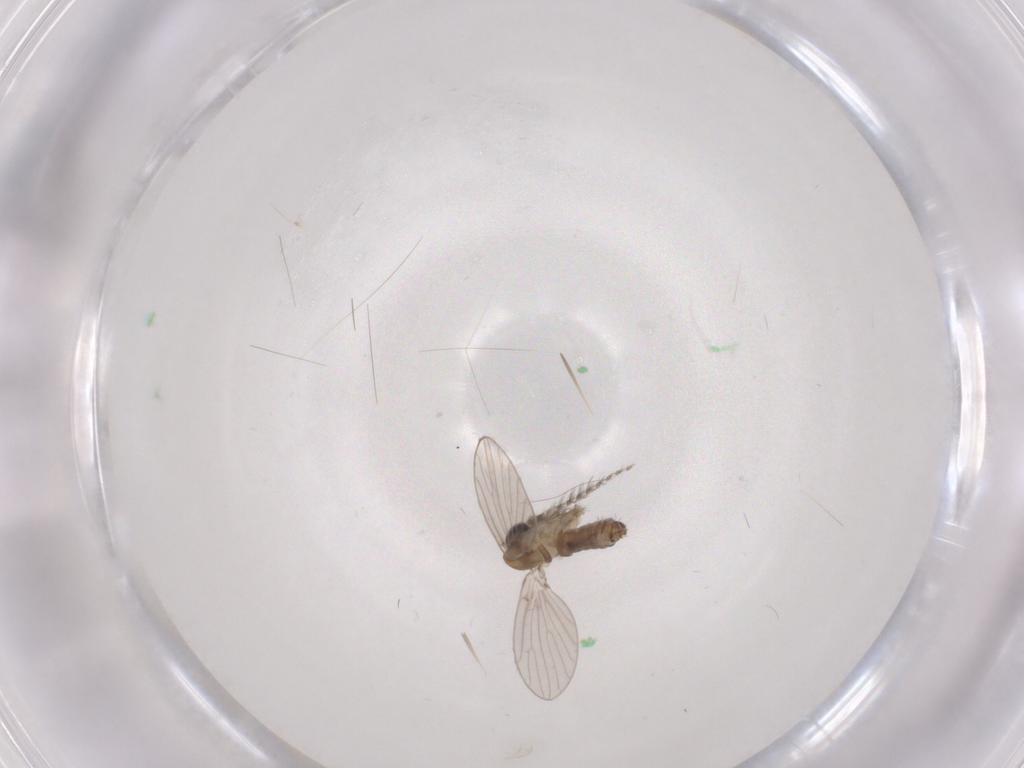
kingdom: Animalia
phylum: Arthropoda
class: Insecta
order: Diptera
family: Psychodidae
